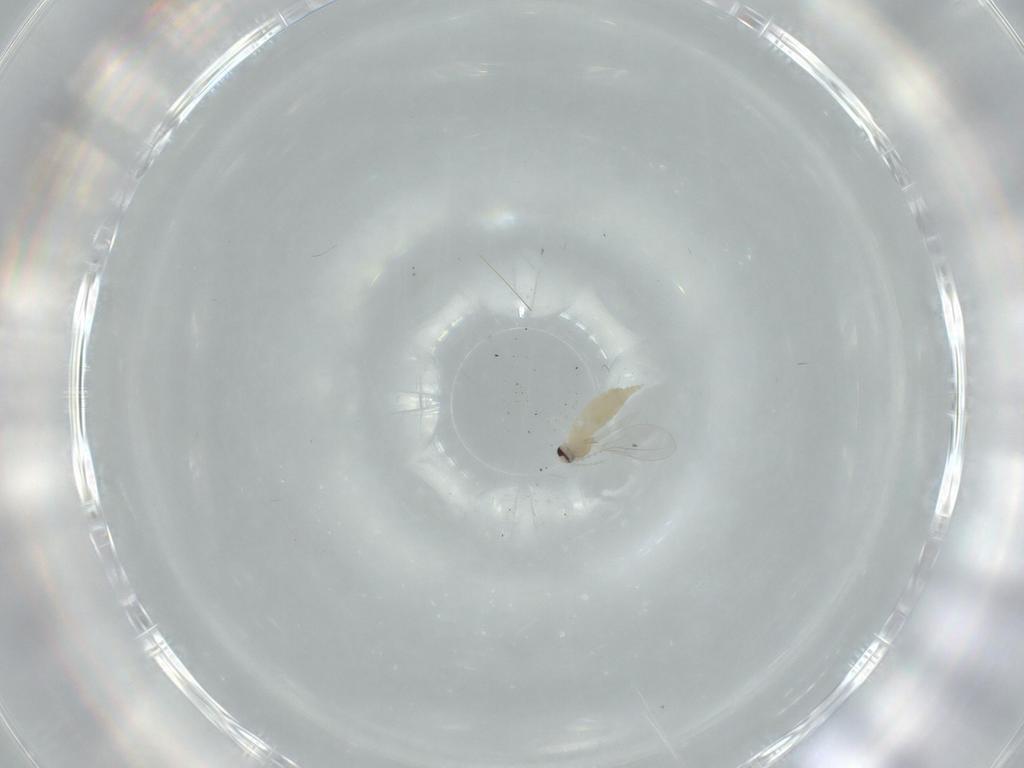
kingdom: Animalia
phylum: Arthropoda
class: Insecta
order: Diptera
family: Cecidomyiidae
